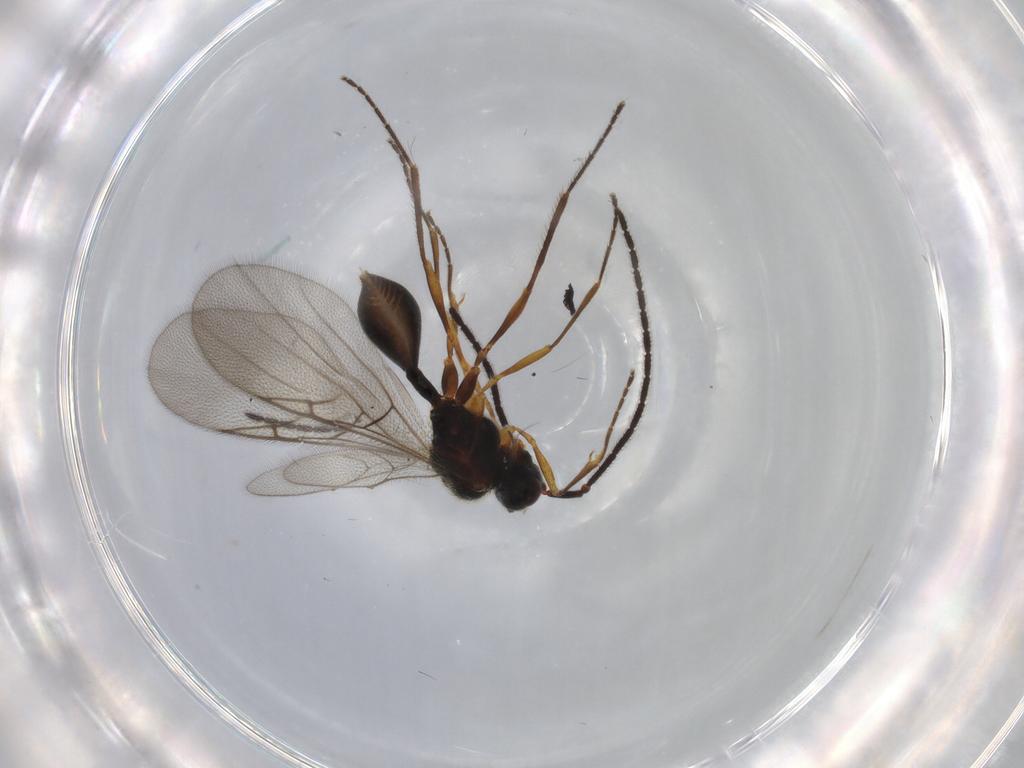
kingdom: Animalia
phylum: Arthropoda
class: Insecta
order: Hymenoptera
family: Diapriidae
